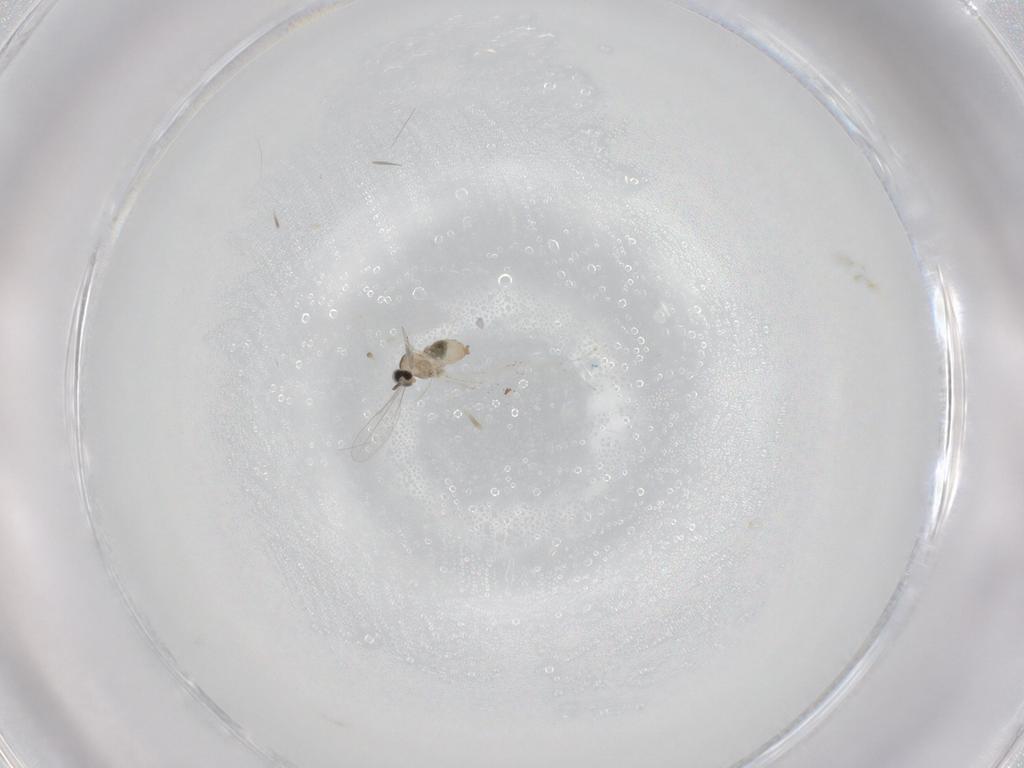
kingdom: Animalia
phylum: Arthropoda
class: Insecta
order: Diptera
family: Cecidomyiidae
